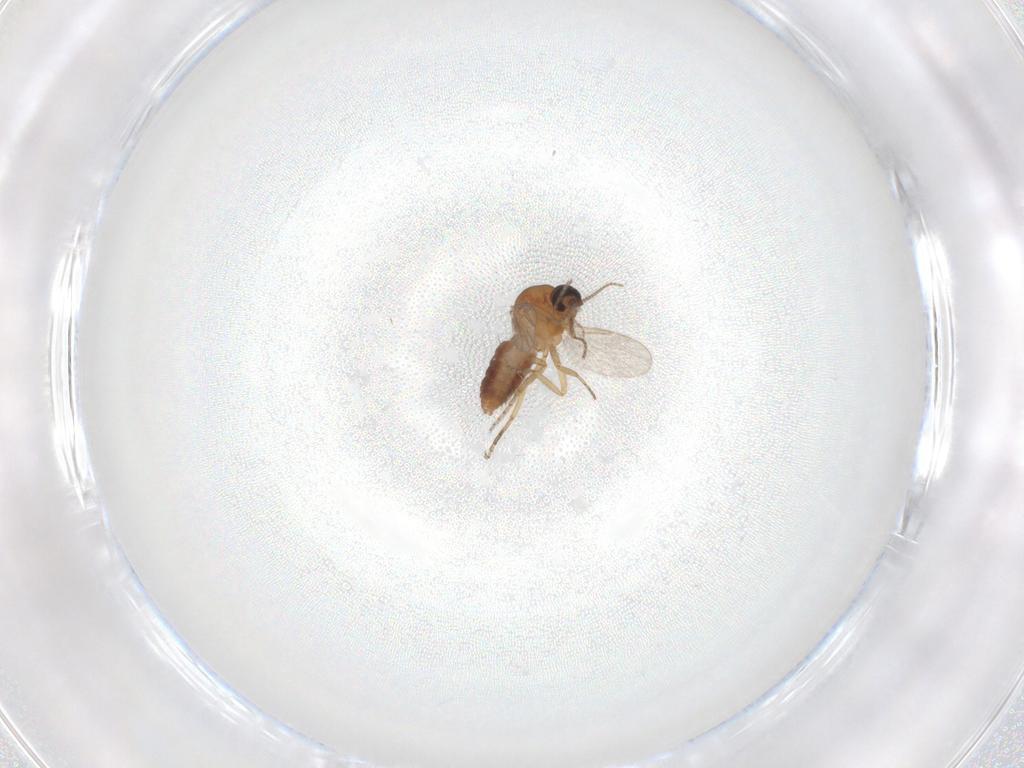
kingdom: Animalia
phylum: Arthropoda
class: Insecta
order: Diptera
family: Ceratopogonidae
